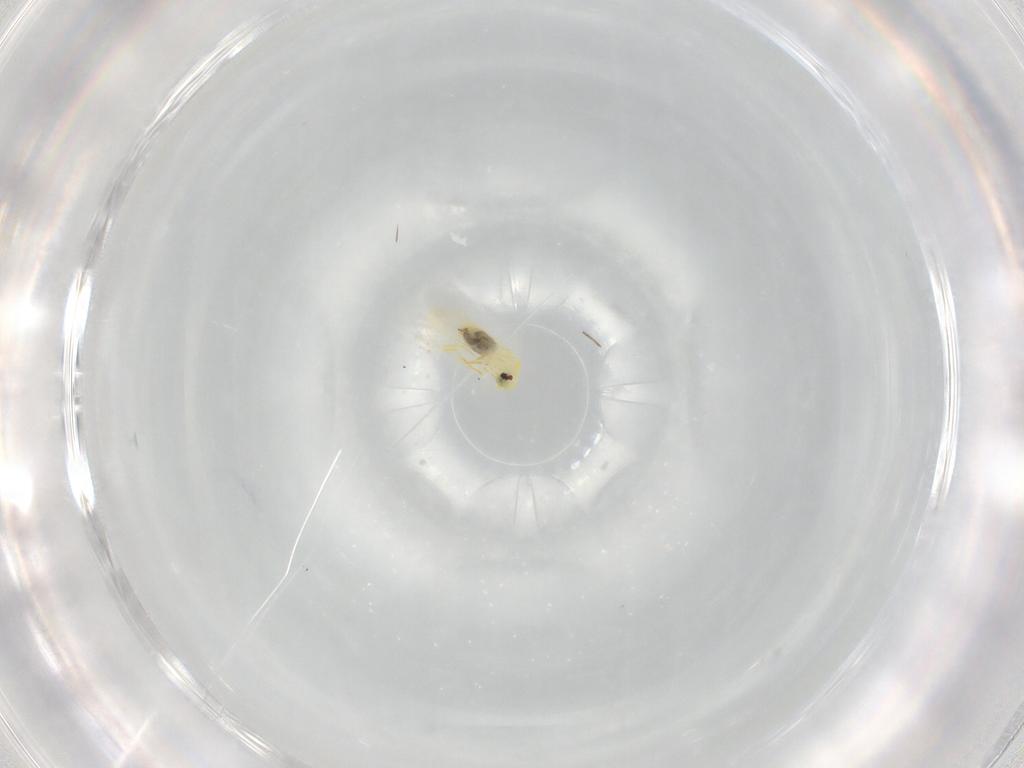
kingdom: Animalia
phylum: Arthropoda
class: Insecta
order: Hemiptera
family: Aleyrodidae
